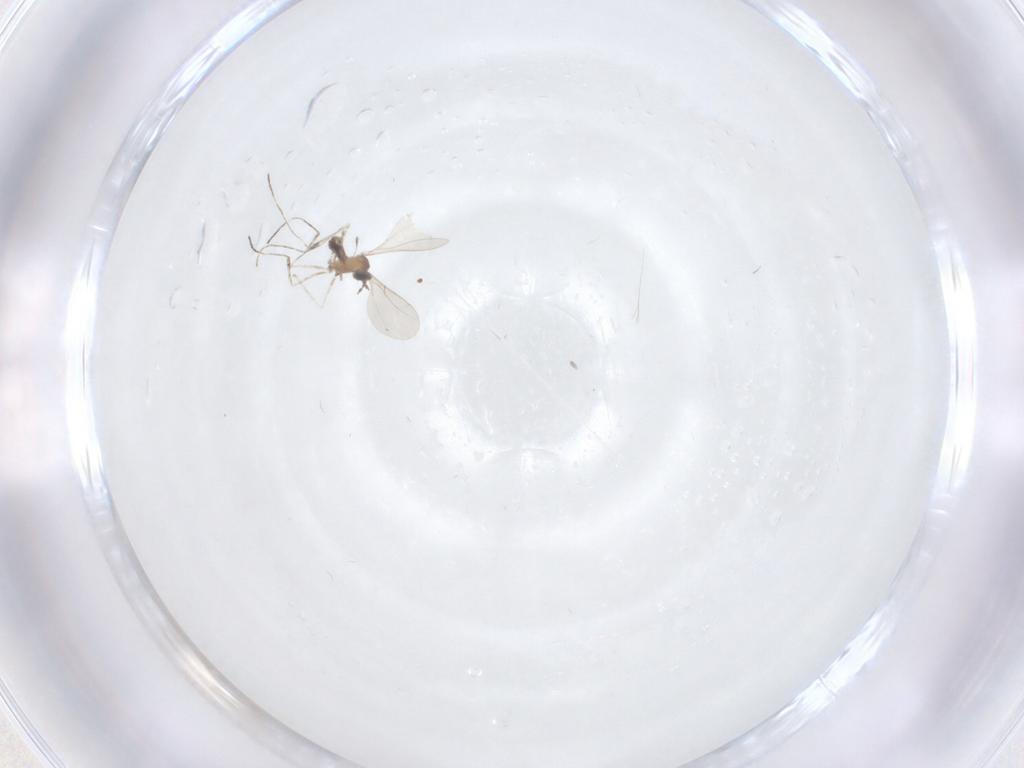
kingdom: Animalia
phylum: Arthropoda
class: Insecta
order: Diptera
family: Cecidomyiidae
